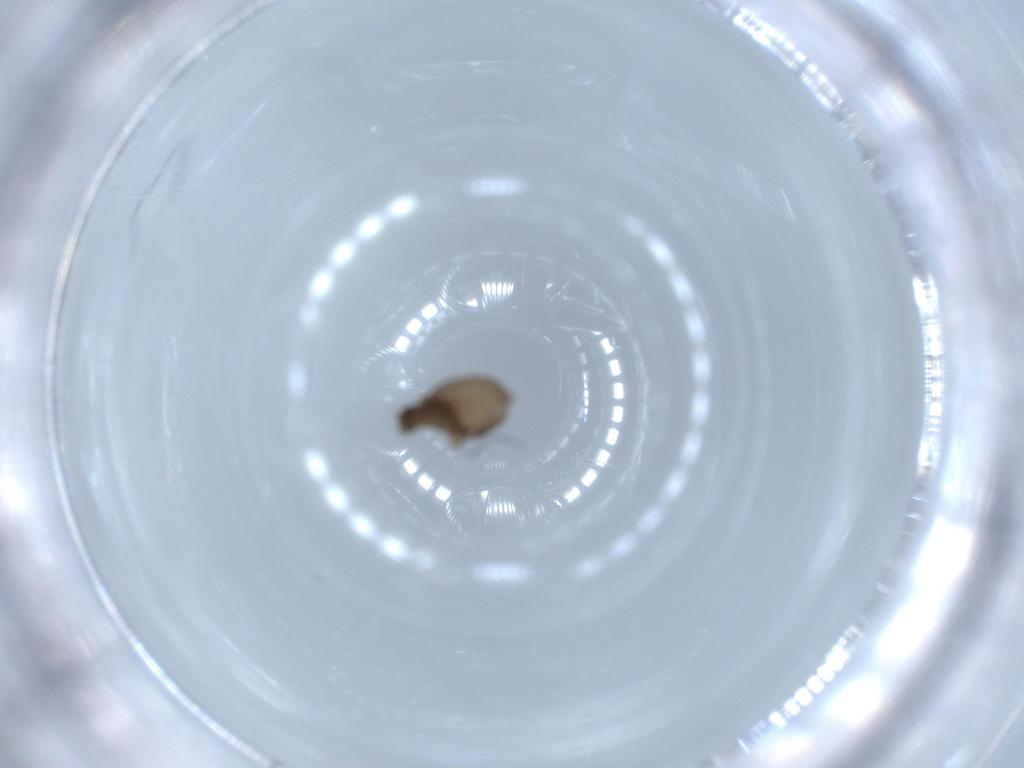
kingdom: Animalia
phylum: Arthropoda
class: Insecta
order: Diptera
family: Phoridae
